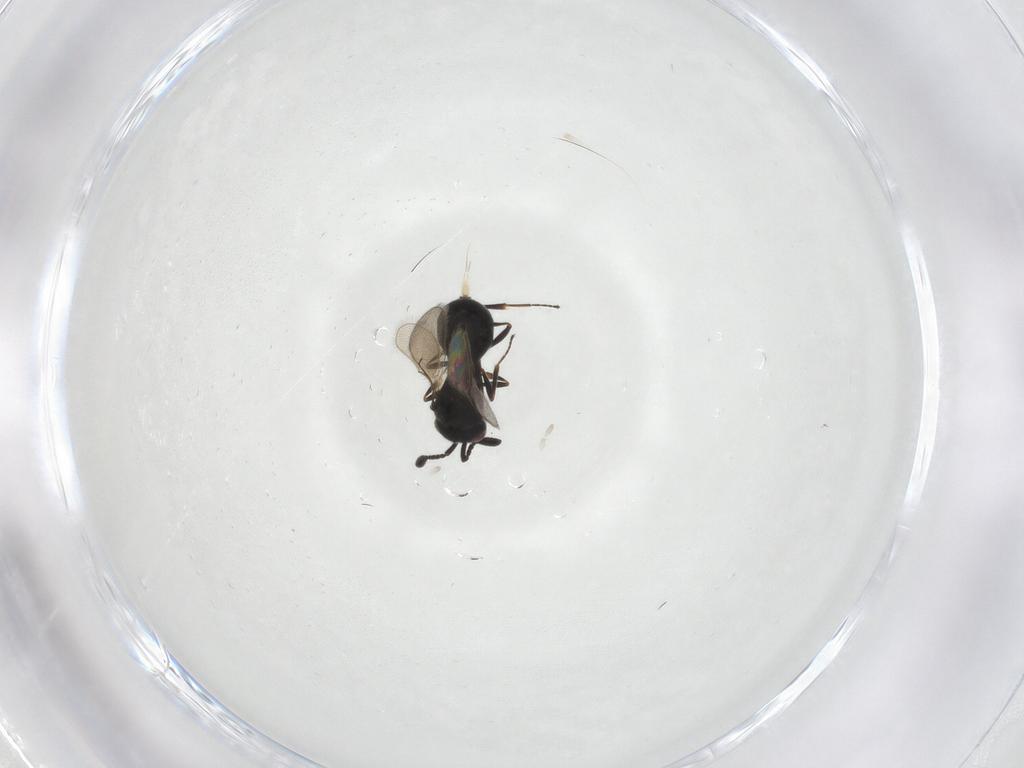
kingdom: Animalia
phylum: Arthropoda
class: Insecta
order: Hymenoptera
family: Scelionidae
